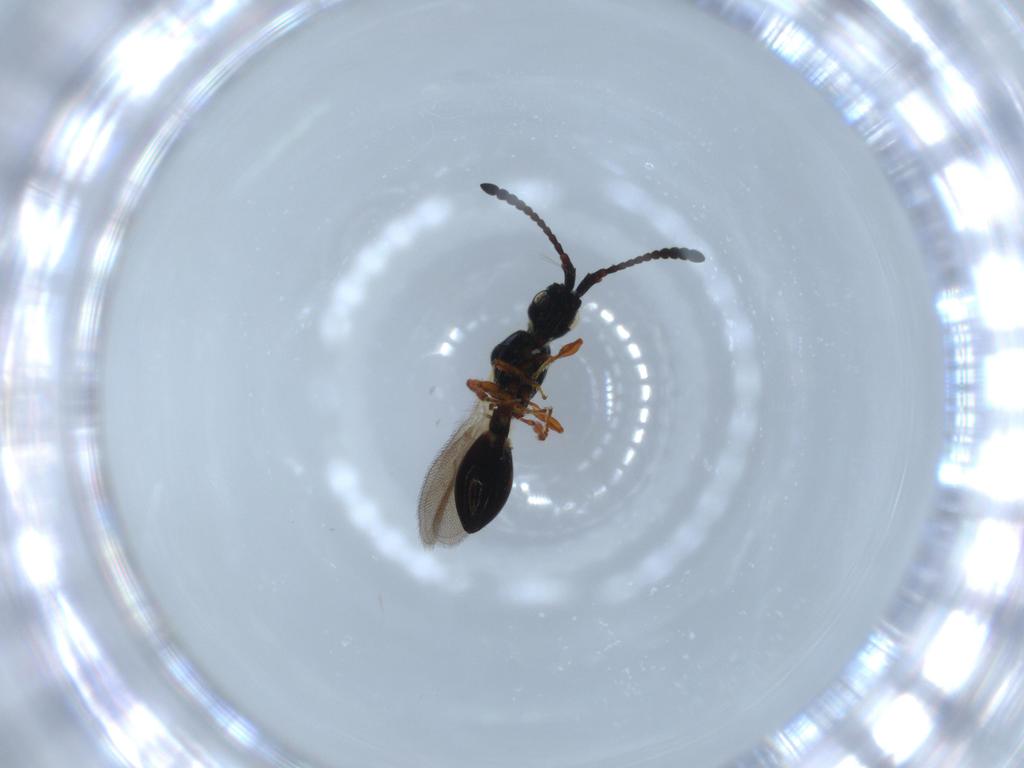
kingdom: Animalia
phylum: Arthropoda
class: Insecta
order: Hymenoptera
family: Diapriidae
